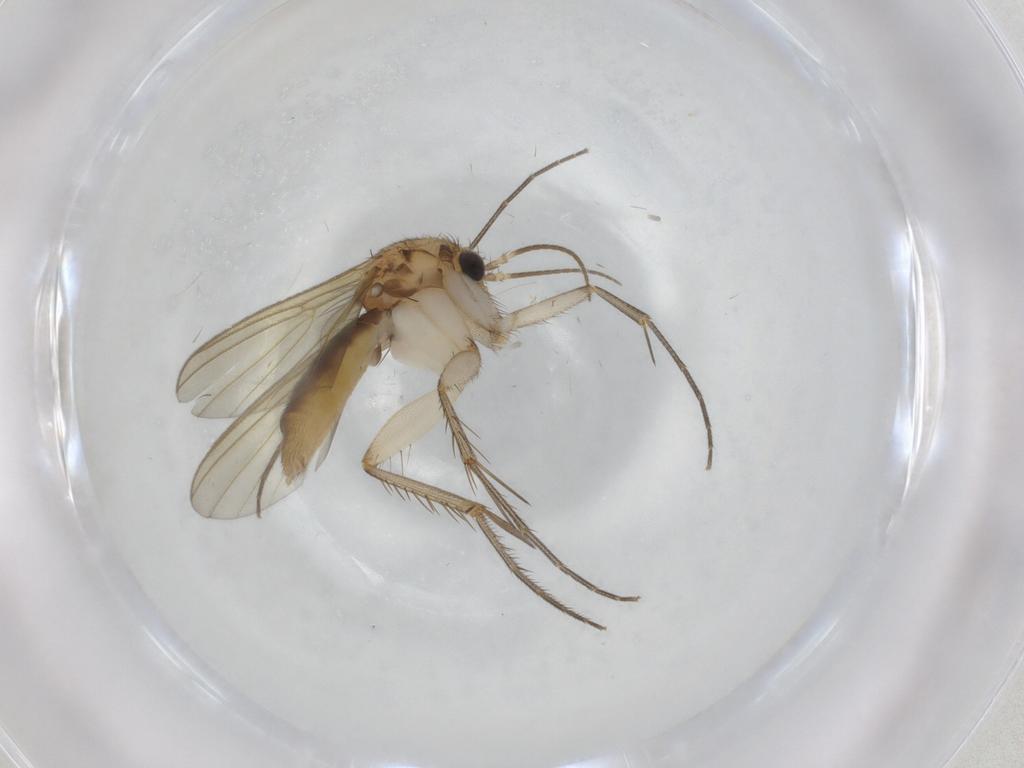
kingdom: Animalia
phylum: Arthropoda
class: Insecta
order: Diptera
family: Mycetophilidae
